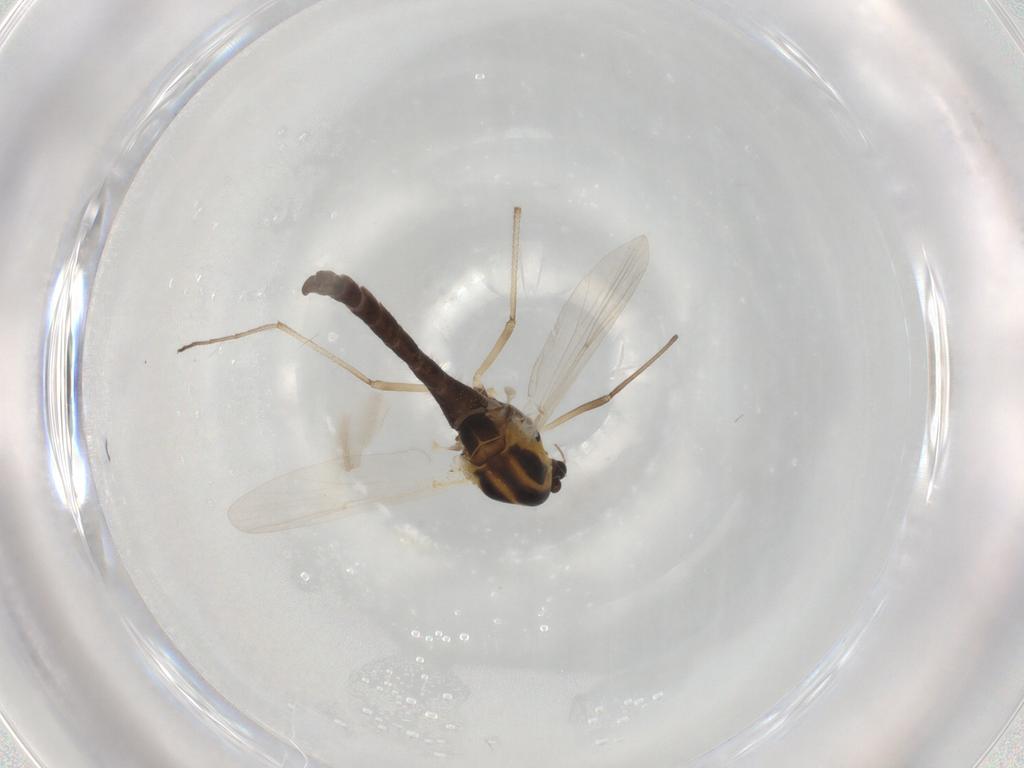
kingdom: Animalia
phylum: Arthropoda
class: Insecta
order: Diptera
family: Chironomidae
